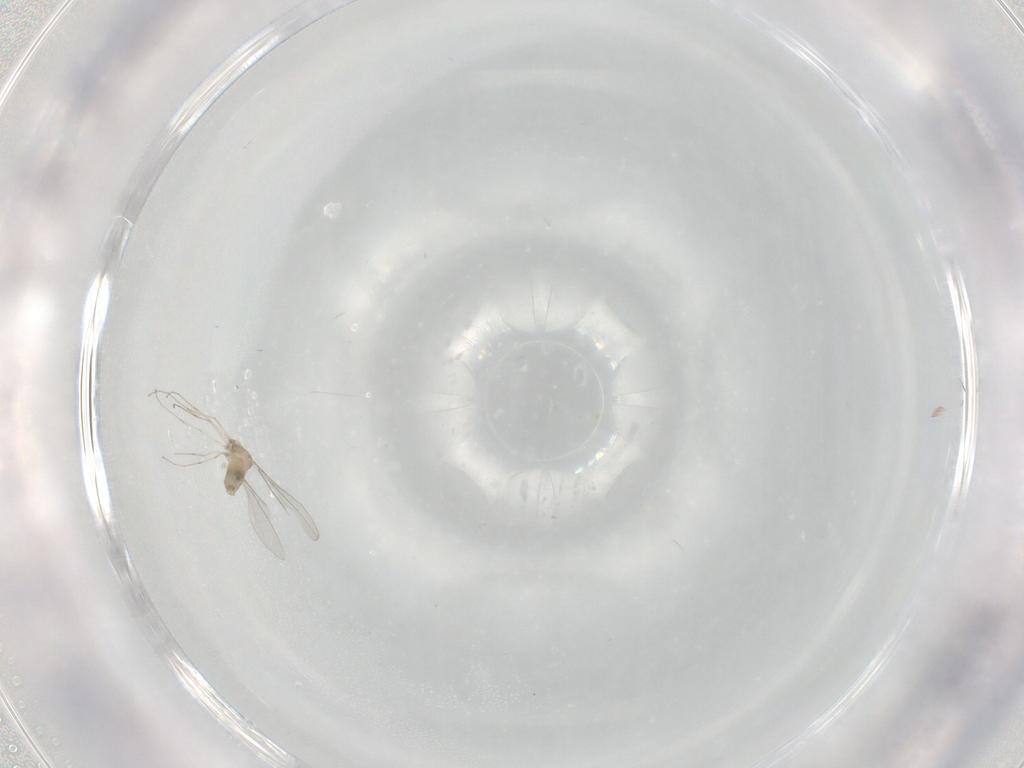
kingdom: Animalia
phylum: Arthropoda
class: Insecta
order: Diptera
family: Cecidomyiidae
